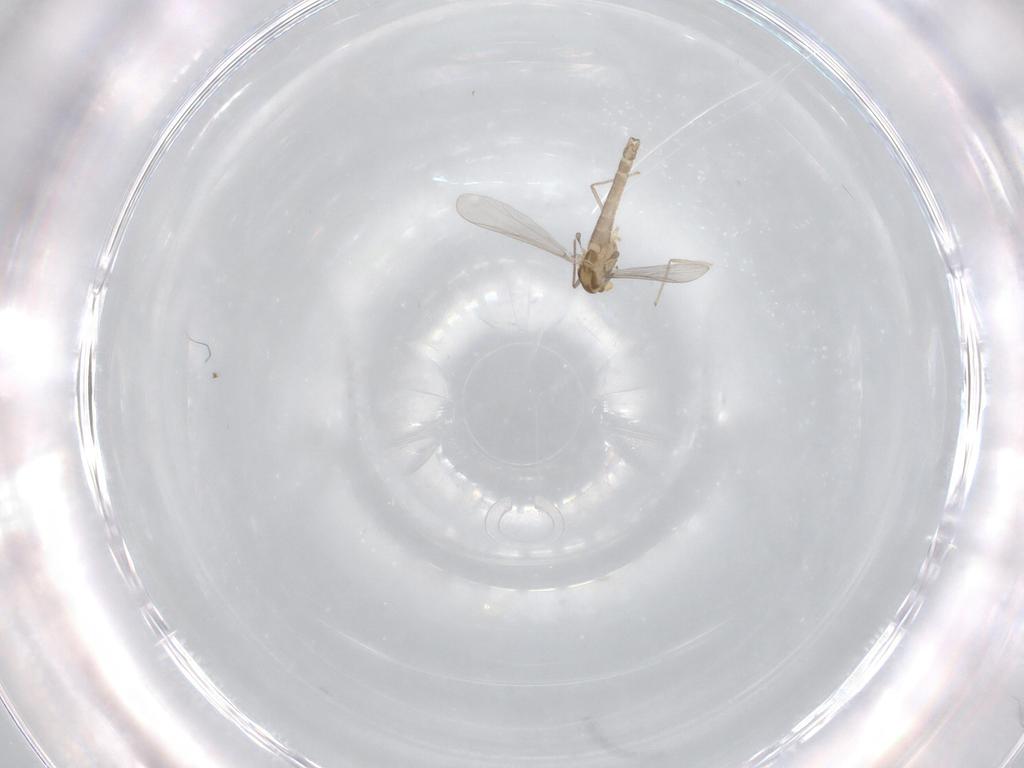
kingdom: Animalia
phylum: Arthropoda
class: Insecta
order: Diptera
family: Chironomidae
